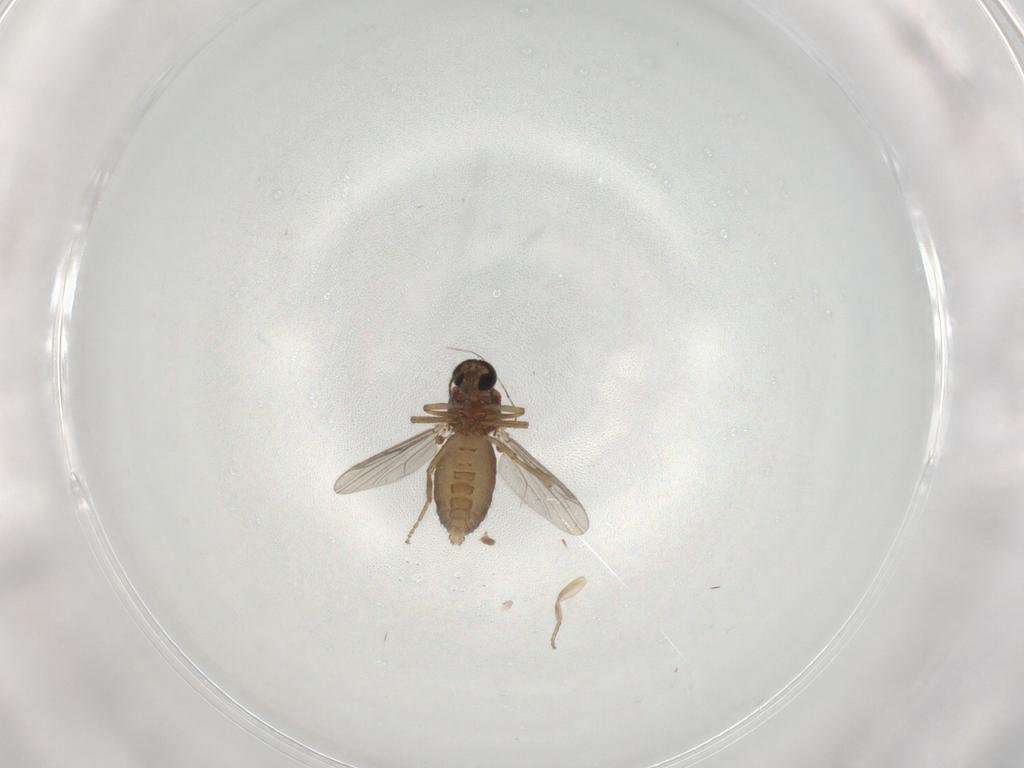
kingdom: Animalia
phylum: Arthropoda
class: Insecta
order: Diptera
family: Ceratopogonidae
